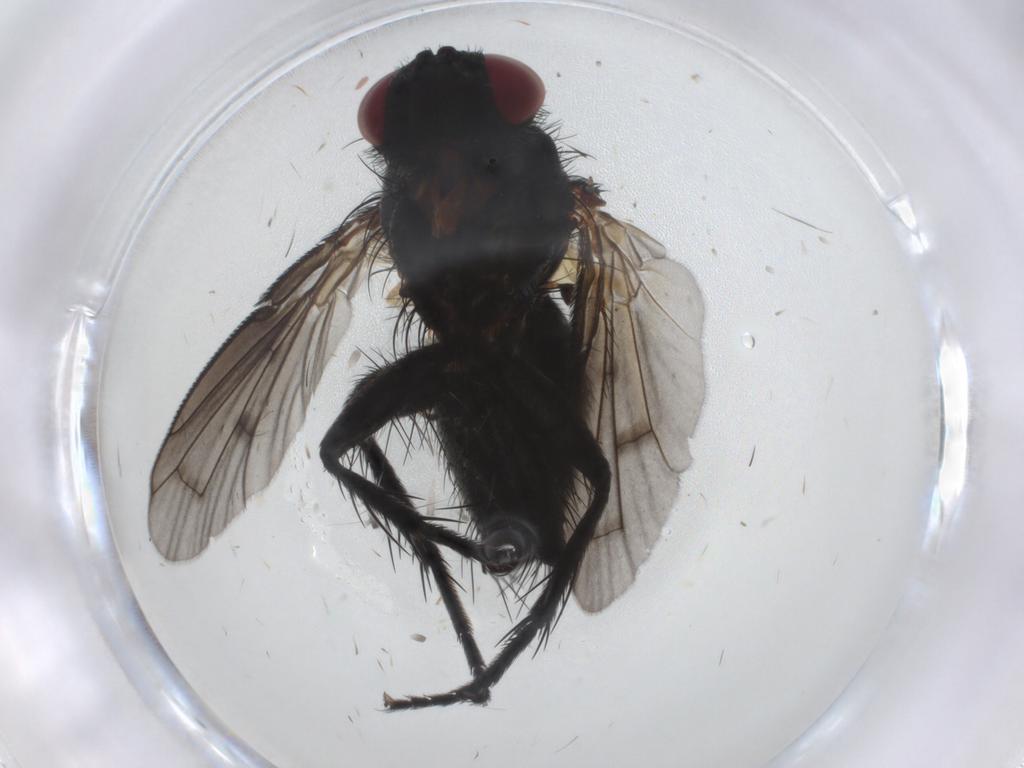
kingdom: Animalia
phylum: Arthropoda
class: Insecta
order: Diptera
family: Tachinidae
